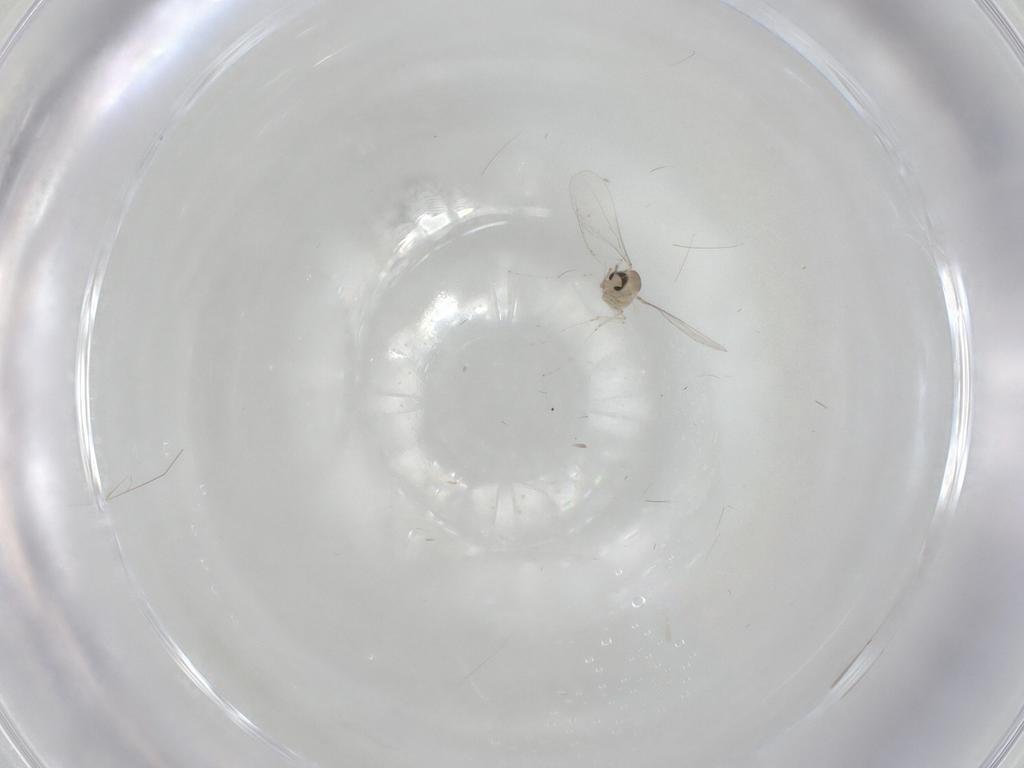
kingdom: Animalia
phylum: Arthropoda
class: Insecta
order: Diptera
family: Cecidomyiidae
